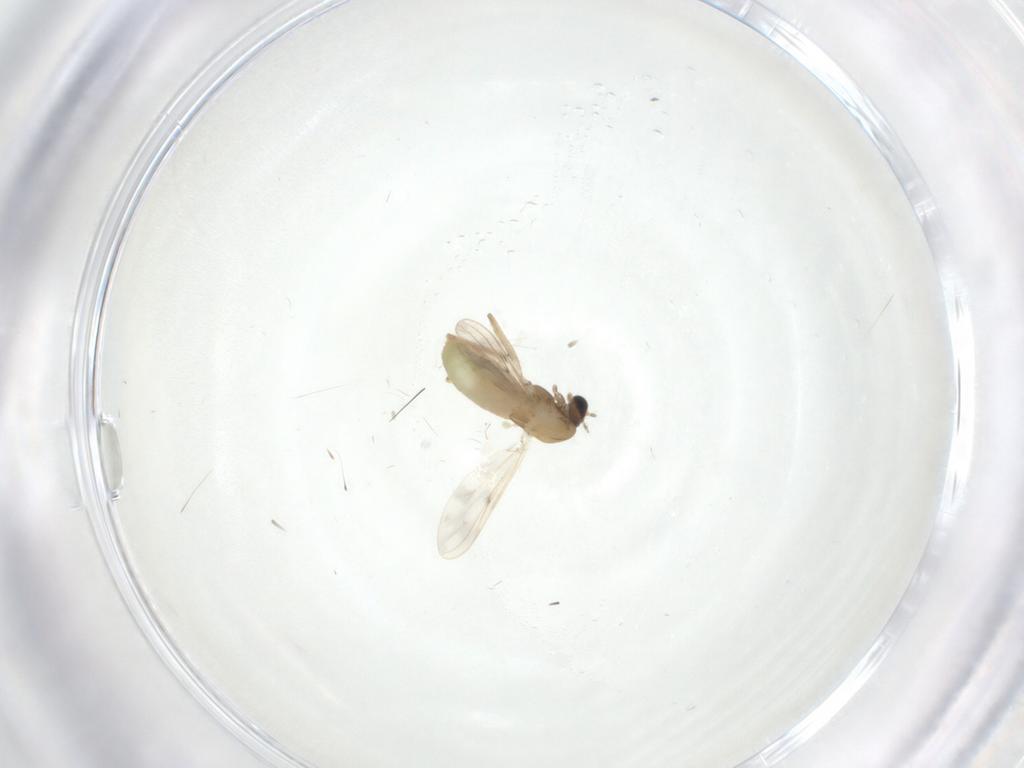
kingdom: Animalia
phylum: Arthropoda
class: Insecta
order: Diptera
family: Chironomidae
